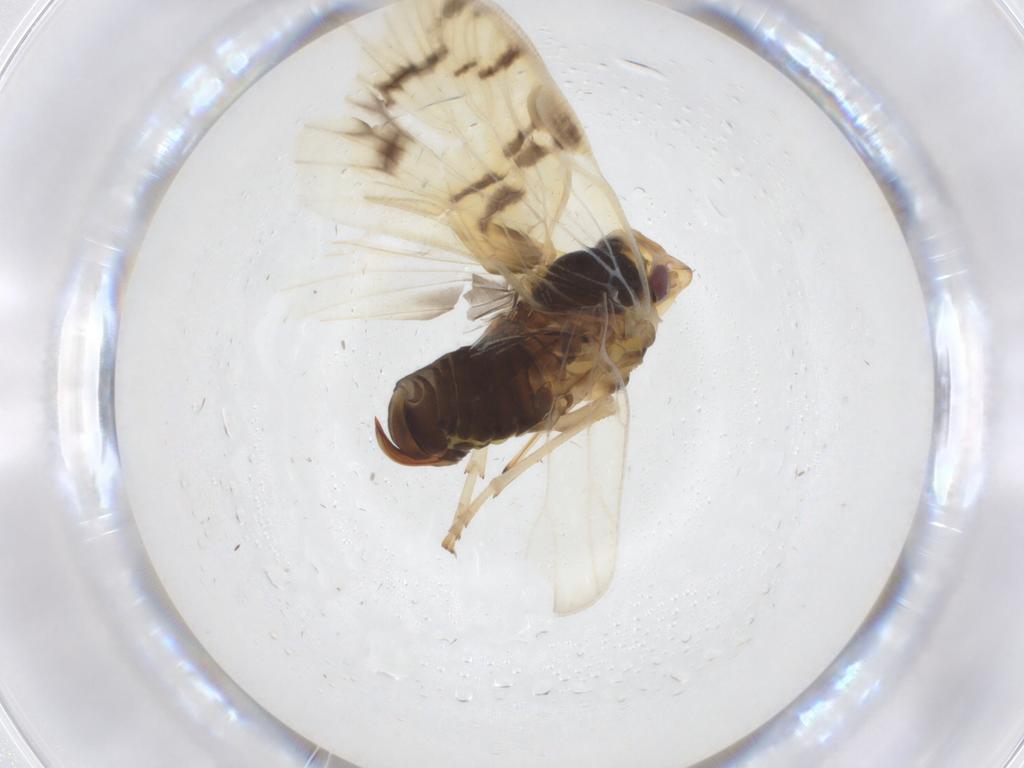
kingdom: Animalia
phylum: Arthropoda
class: Insecta
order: Hemiptera
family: Cixiidae
